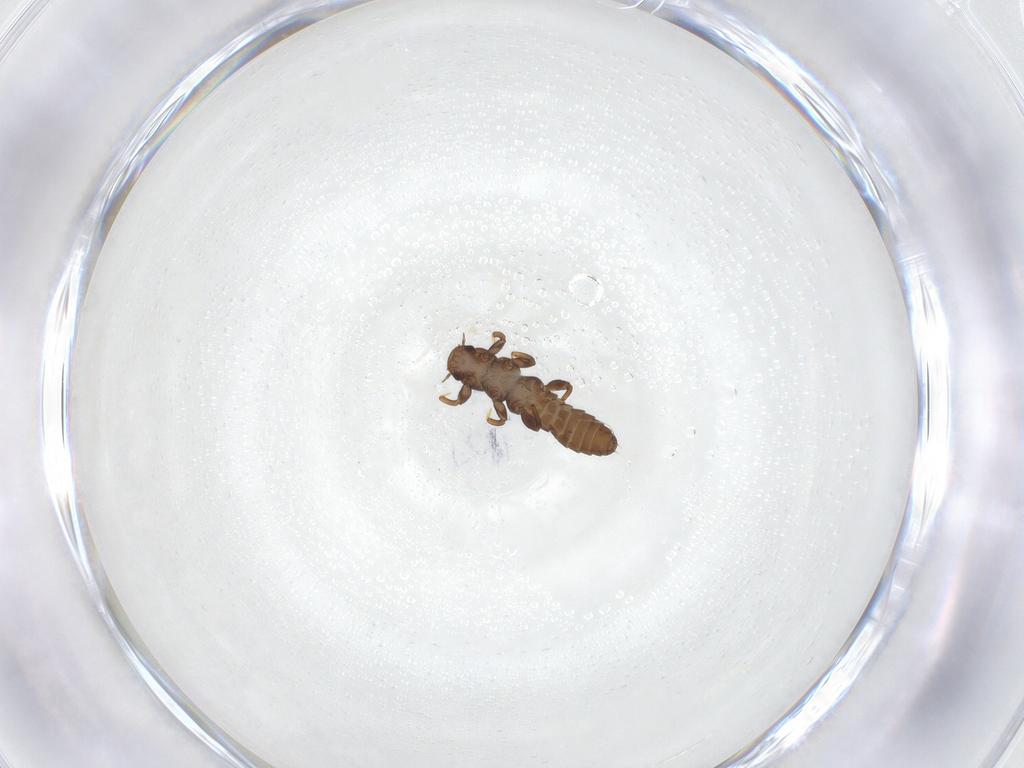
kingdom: Animalia
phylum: Arthropoda
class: Insecta
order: Coleoptera
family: Meloidae
